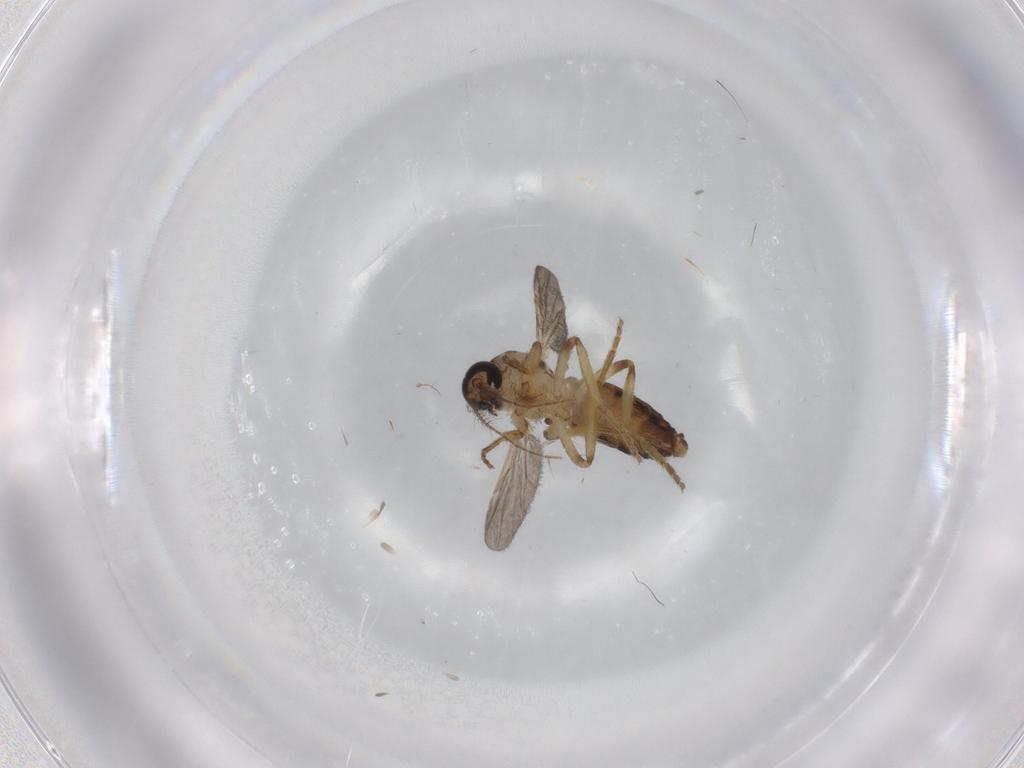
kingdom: Animalia
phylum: Arthropoda
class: Insecta
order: Diptera
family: Ceratopogonidae
